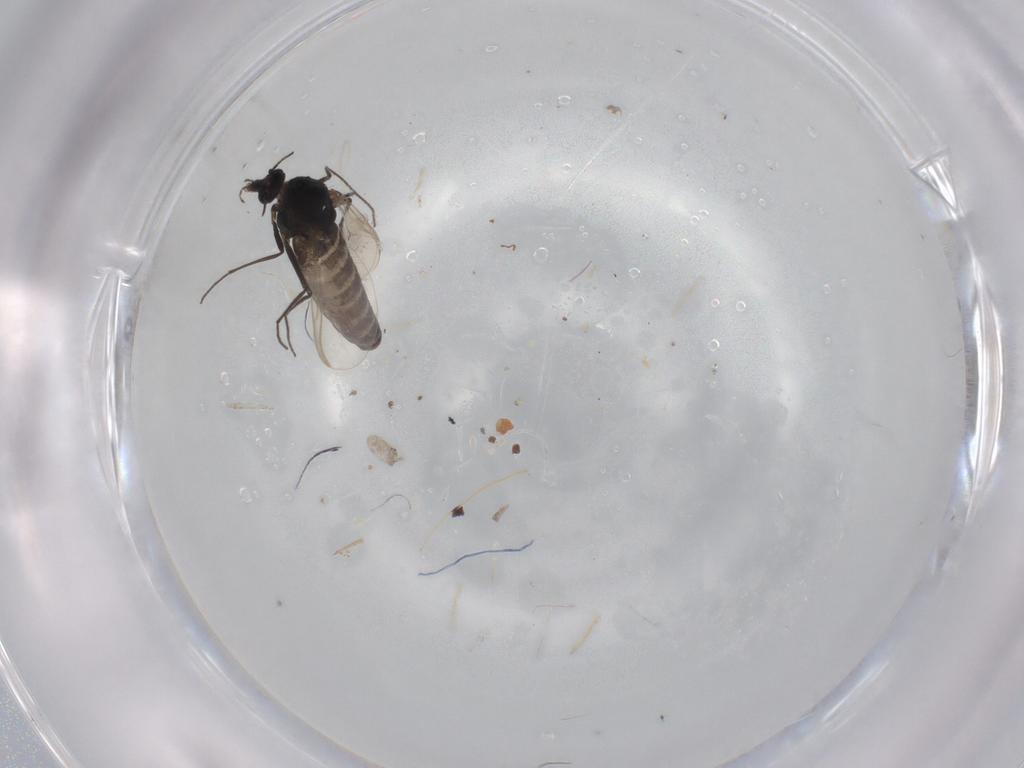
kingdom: Animalia
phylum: Arthropoda
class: Insecta
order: Diptera
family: Chironomidae
